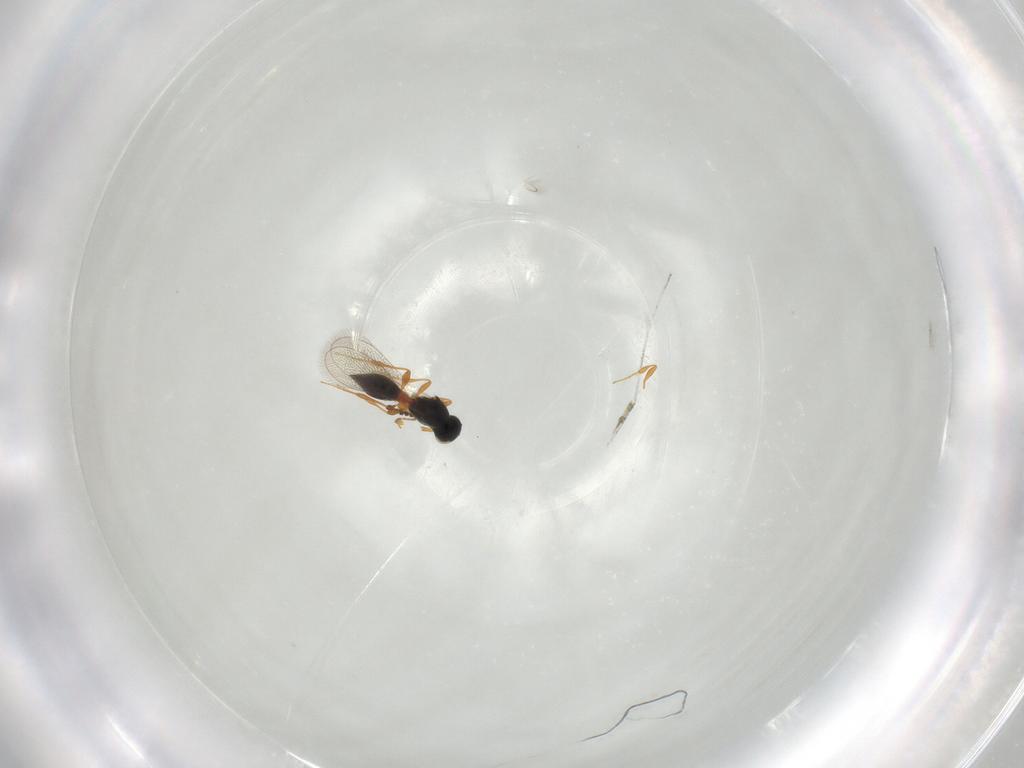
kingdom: Animalia
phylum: Arthropoda
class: Insecta
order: Hymenoptera
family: Platygastridae
